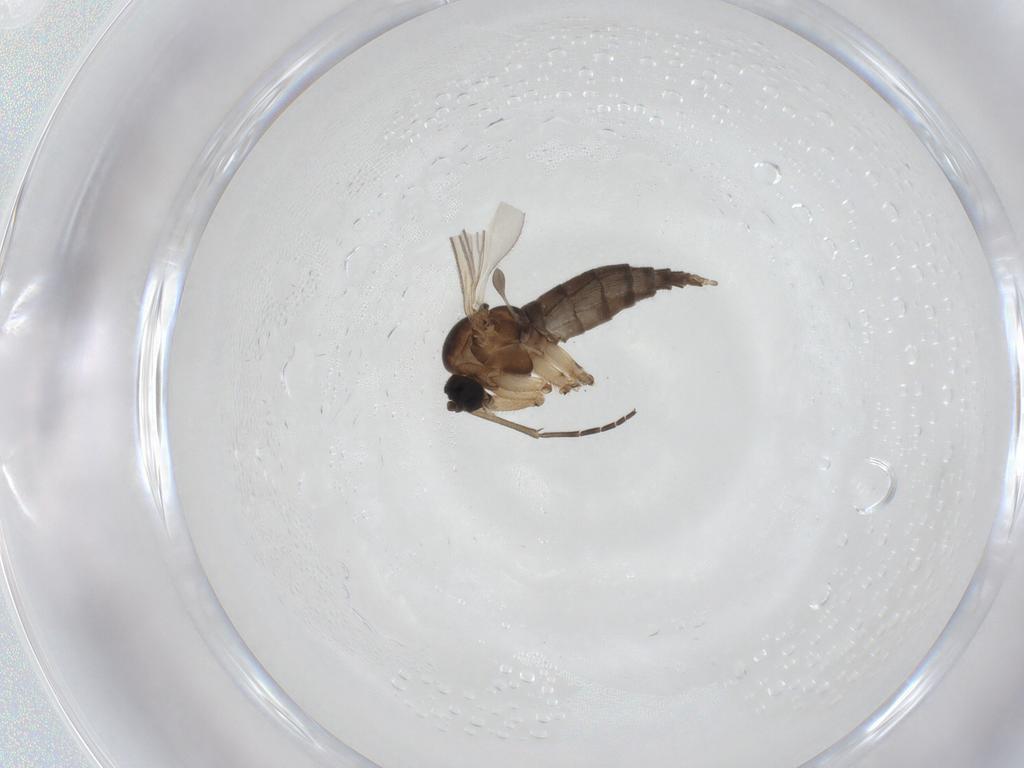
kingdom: Animalia
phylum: Arthropoda
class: Insecta
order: Diptera
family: Sciaridae
